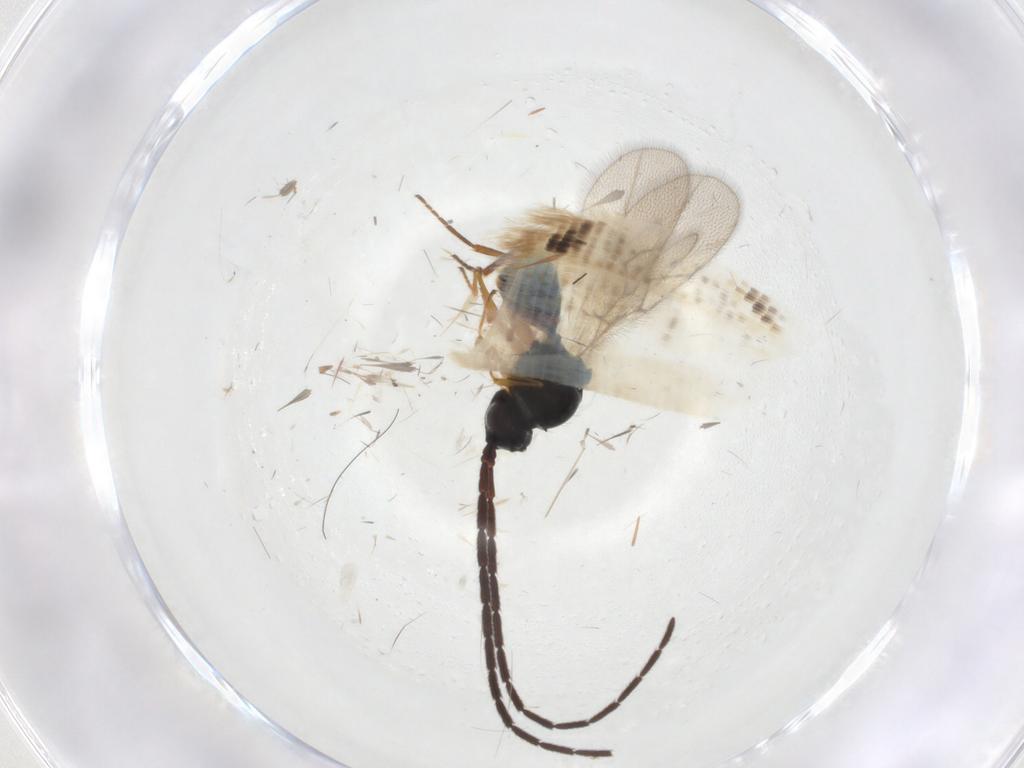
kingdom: Animalia
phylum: Arthropoda
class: Insecta
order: Hymenoptera
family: Figitidae
